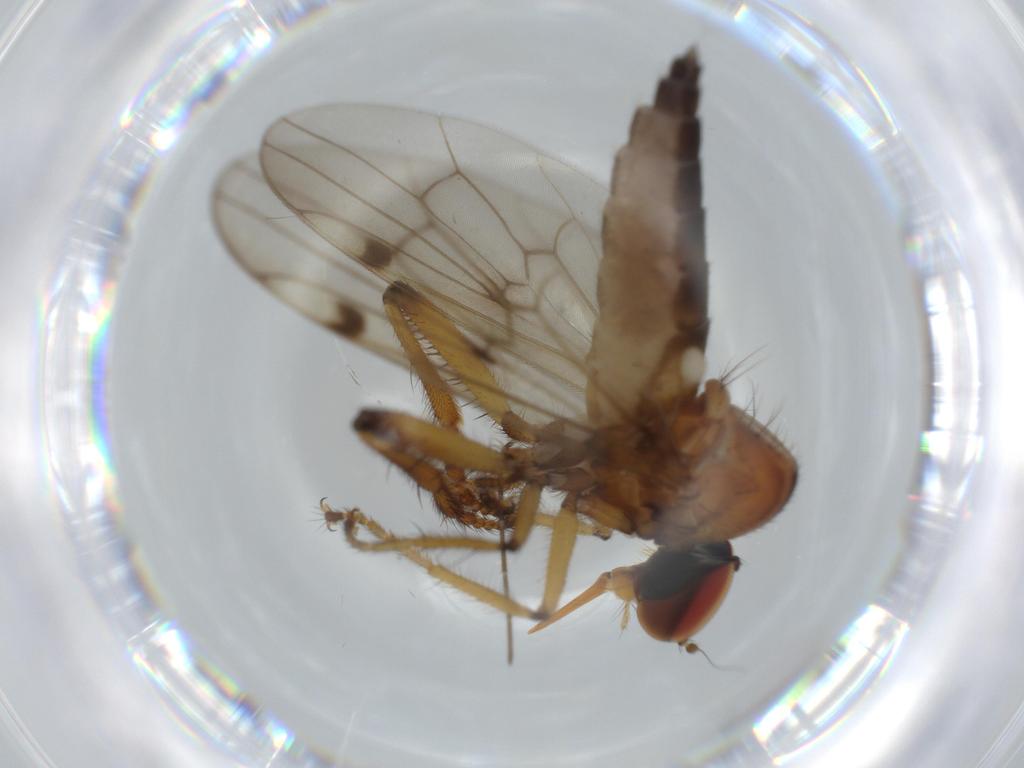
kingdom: Animalia
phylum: Arthropoda
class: Insecta
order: Diptera
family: Hybotidae
